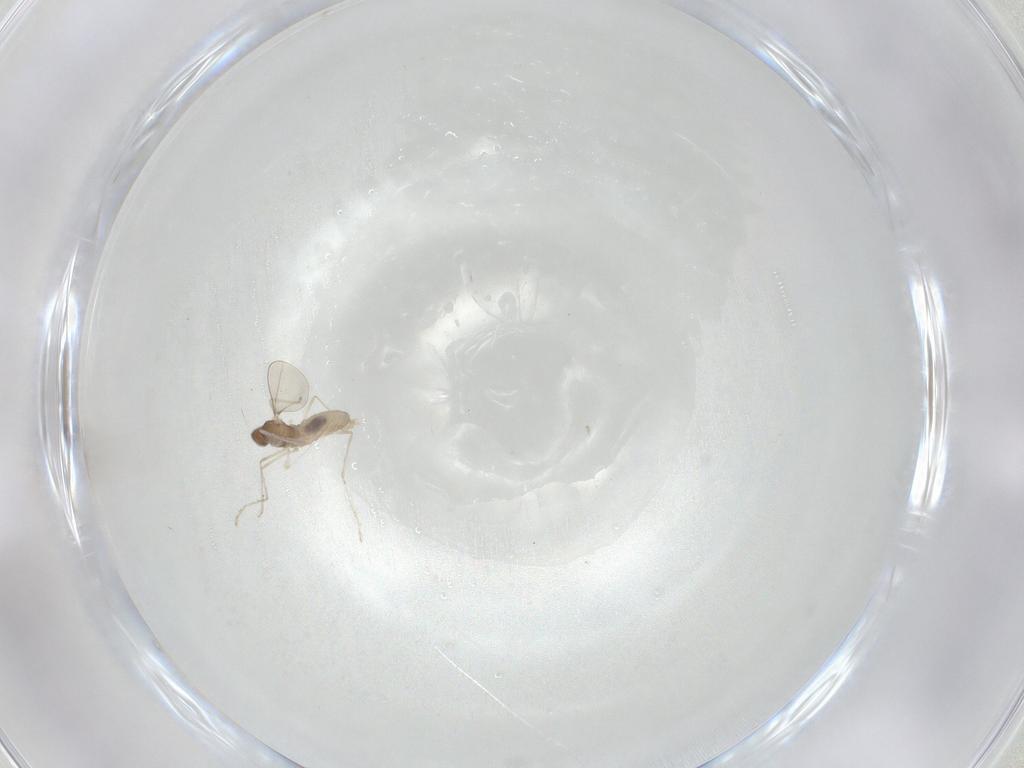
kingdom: Animalia
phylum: Arthropoda
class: Insecta
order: Diptera
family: Cecidomyiidae
